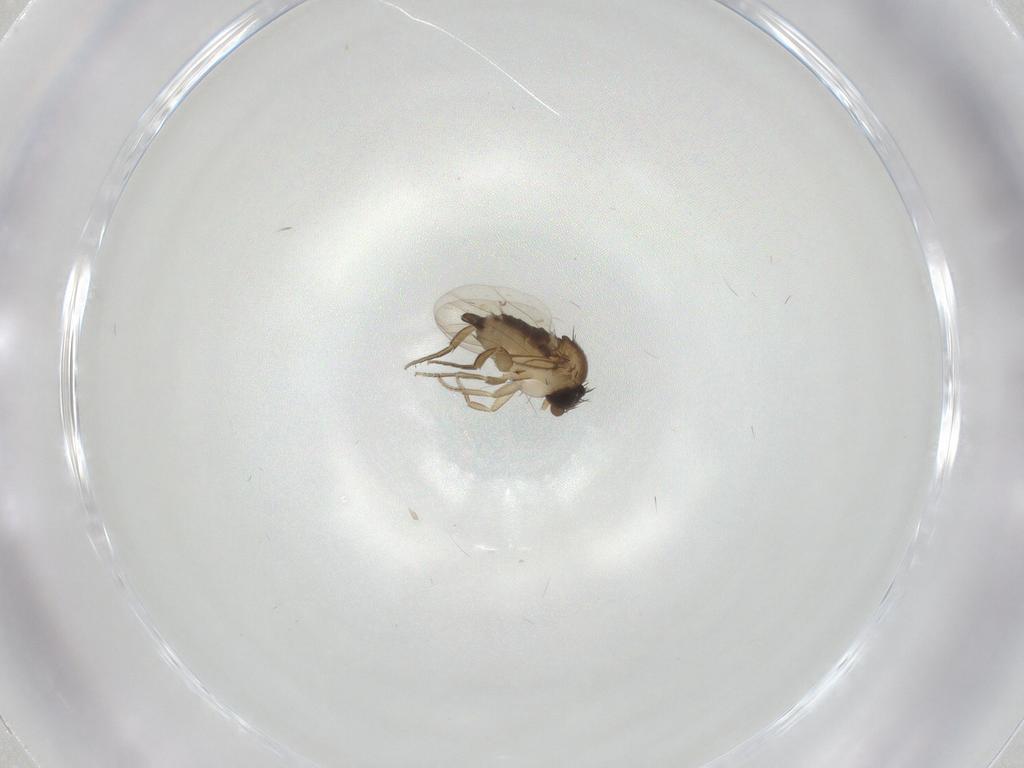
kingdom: Animalia
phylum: Arthropoda
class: Insecta
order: Diptera
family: Phoridae
